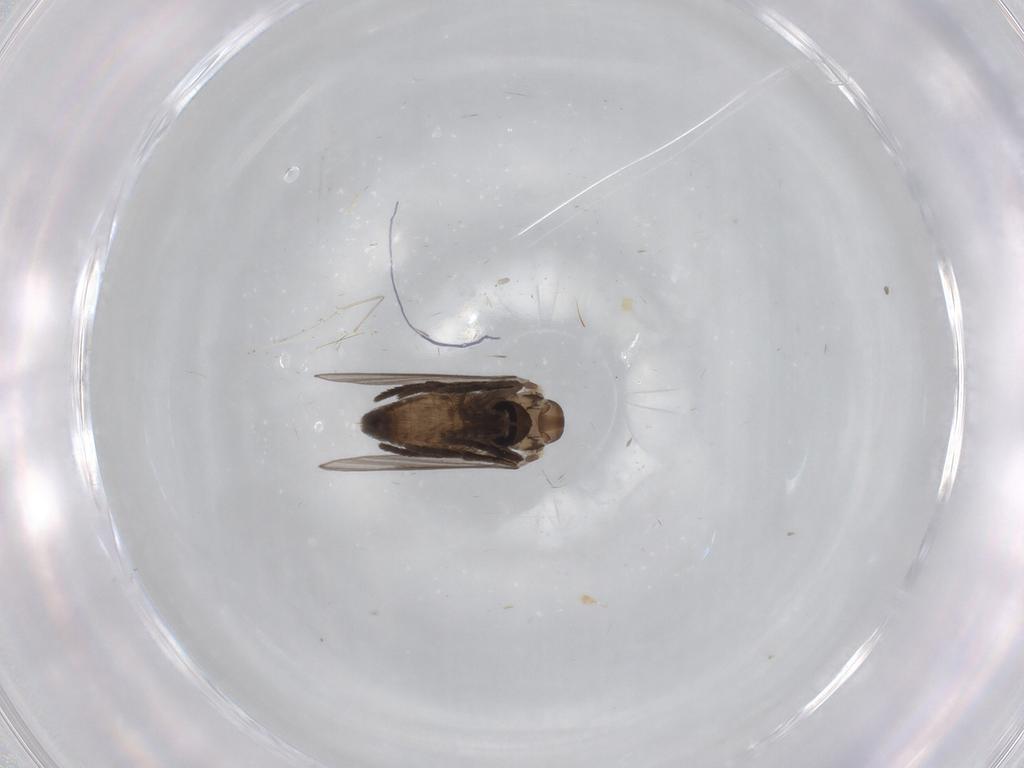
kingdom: Animalia
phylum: Arthropoda
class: Insecta
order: Diptera
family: Psychodidae
